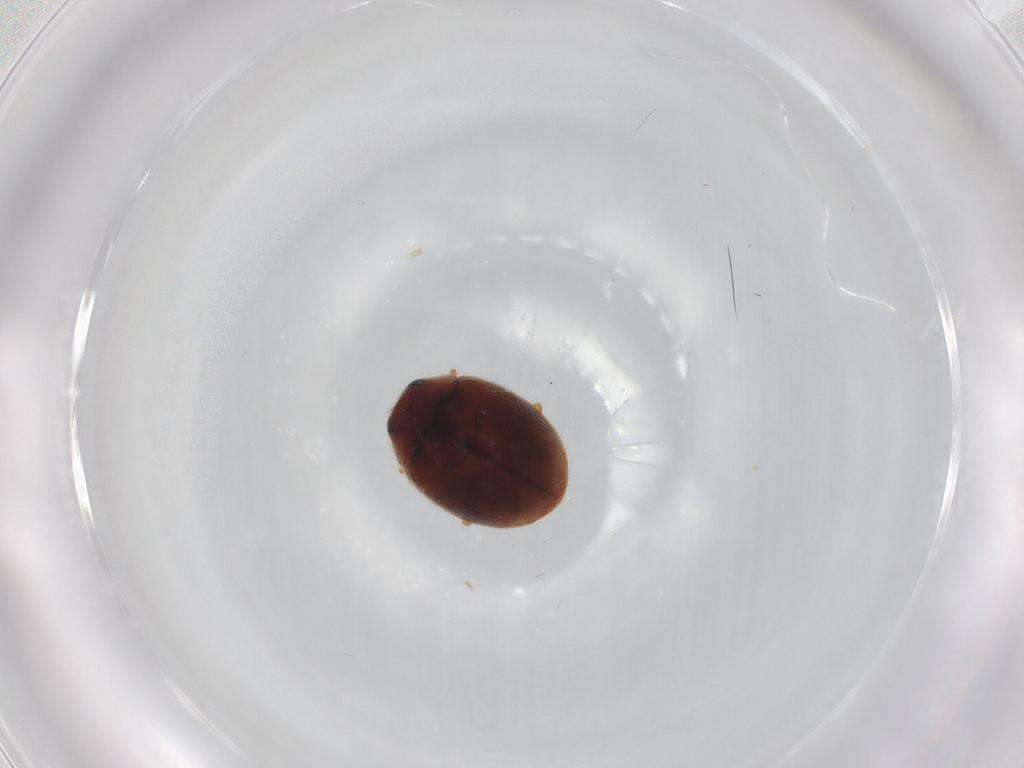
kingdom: Animalia
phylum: Arthropoda
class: Insecta
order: Coleoptera
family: Coccinellidae
